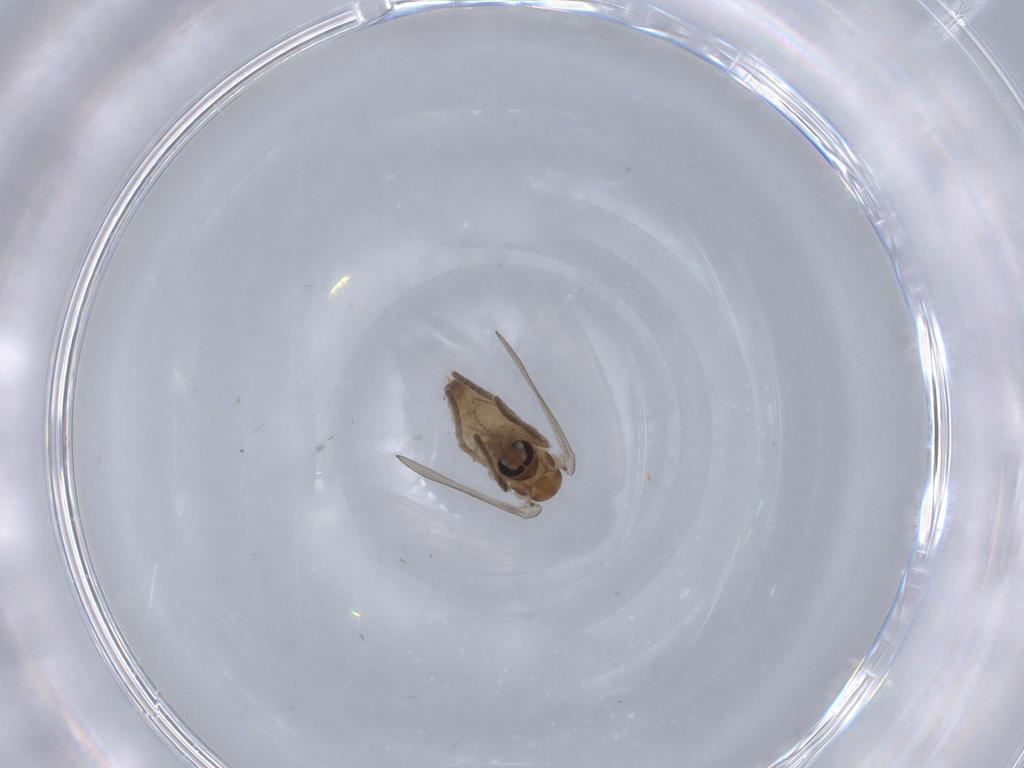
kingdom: Animalia
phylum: Arthropoda
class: Insecta
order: Diptera
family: Psychodidae
